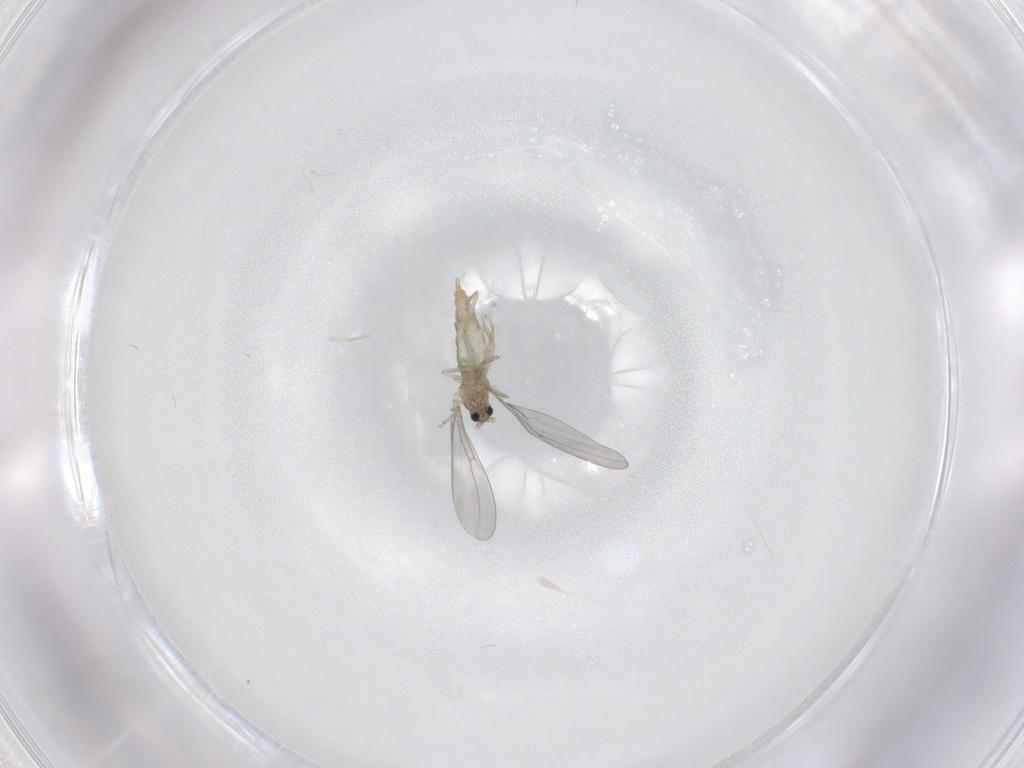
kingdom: Animalia
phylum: Arthropoda
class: Insecta
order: Diptera
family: Cecidomyiidae
